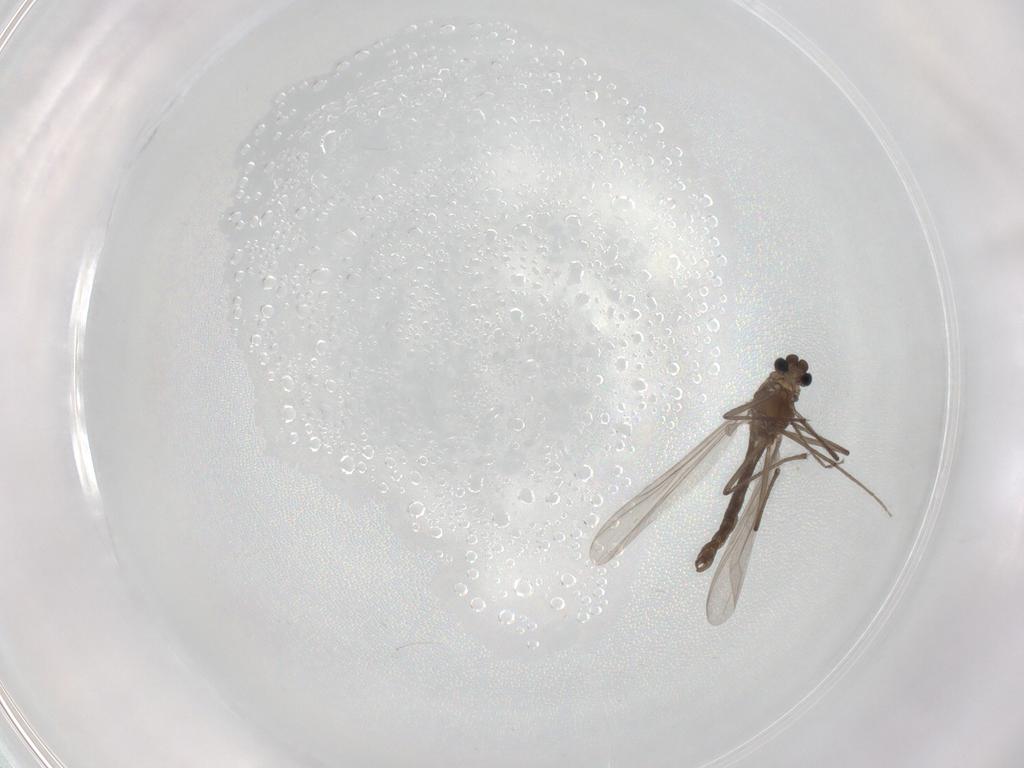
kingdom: Animalia
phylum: Arthropoda
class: Insecta
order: Diptera
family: Chironomidae
